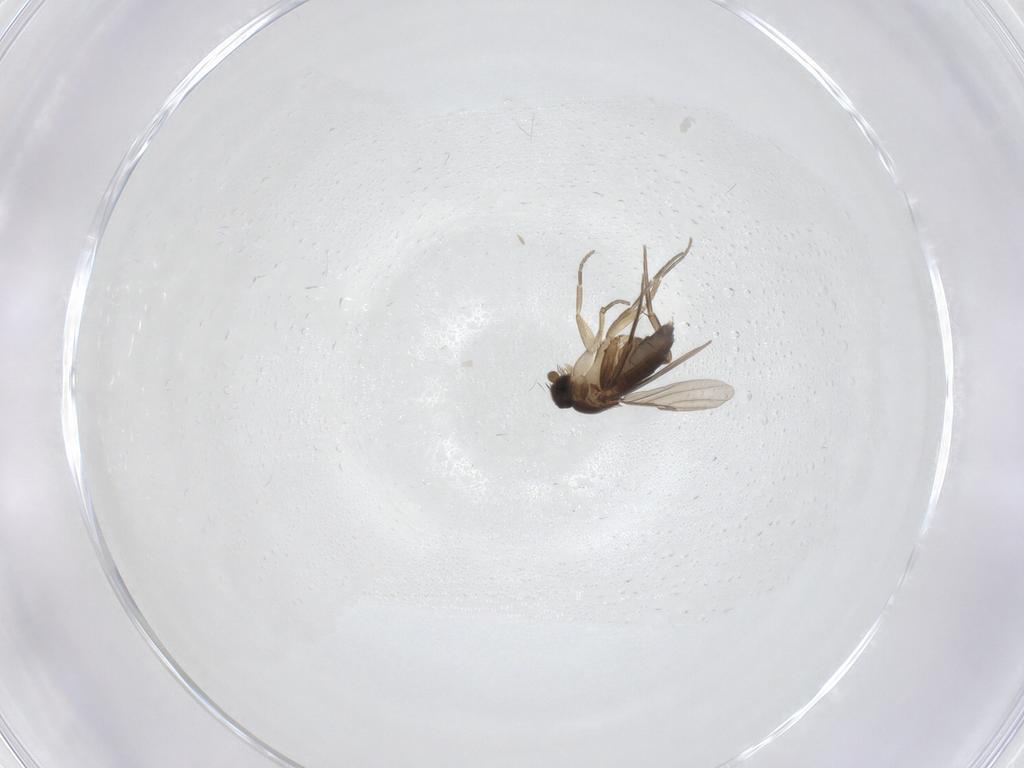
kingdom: Animalia
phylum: Arthropoda
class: Insecta
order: Diptera
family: Phoridae
